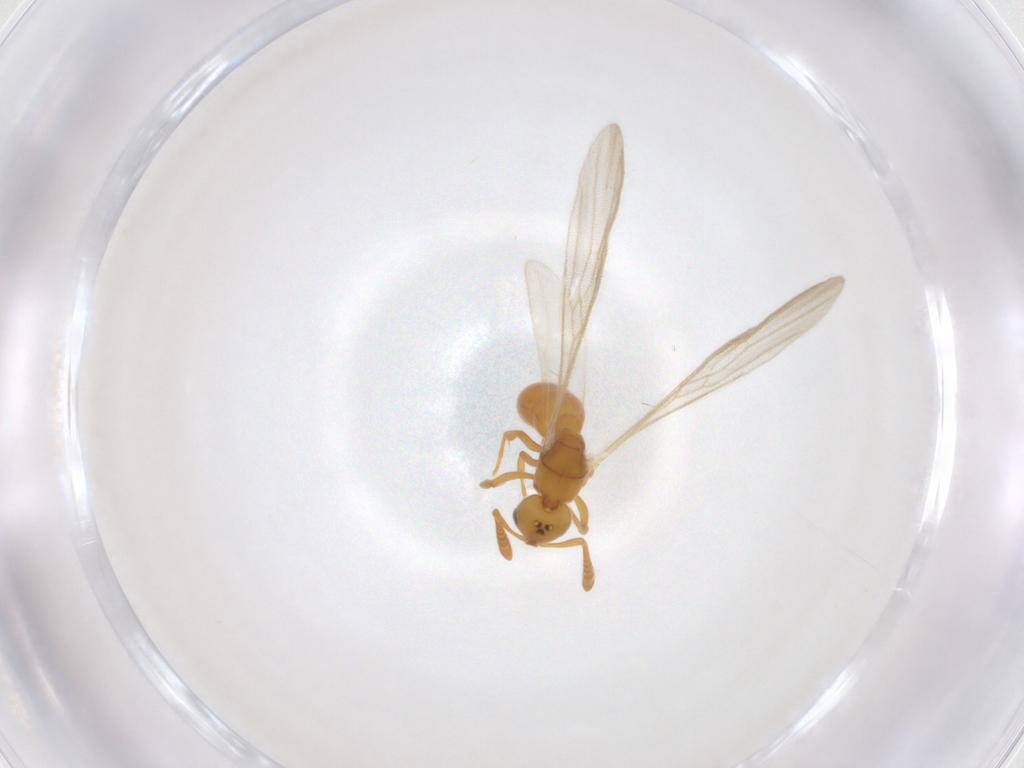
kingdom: Animalia
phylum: Arthropoda
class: Insecta
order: Hymenoptera
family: Formicidae
